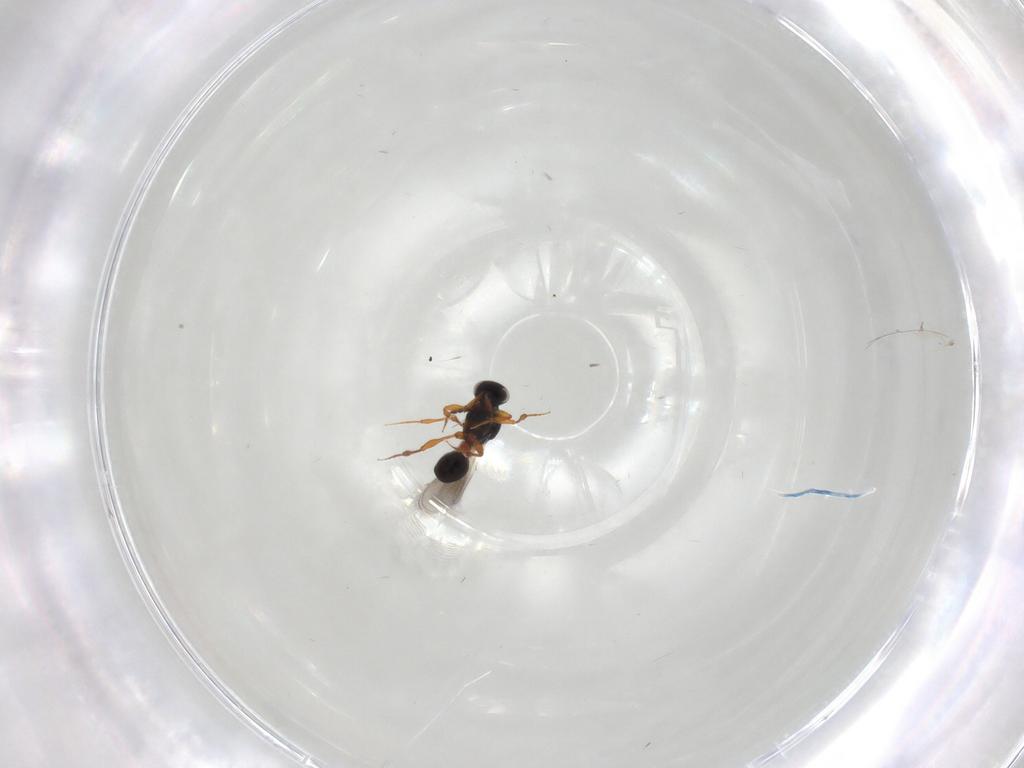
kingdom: Animalia
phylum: Arthropoda
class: Insecta
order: Hymenoptera
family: Platygastridae
